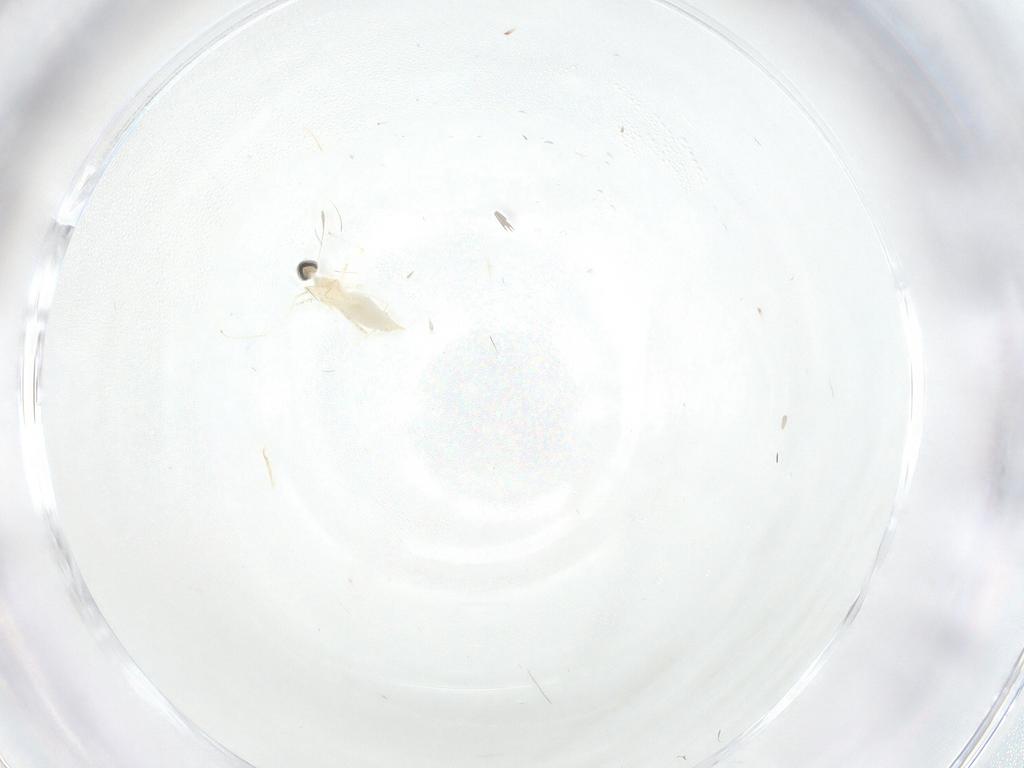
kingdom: Animalia
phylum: Arthropoda
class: Insecta
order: Diptera
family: Cecidomyiidae
